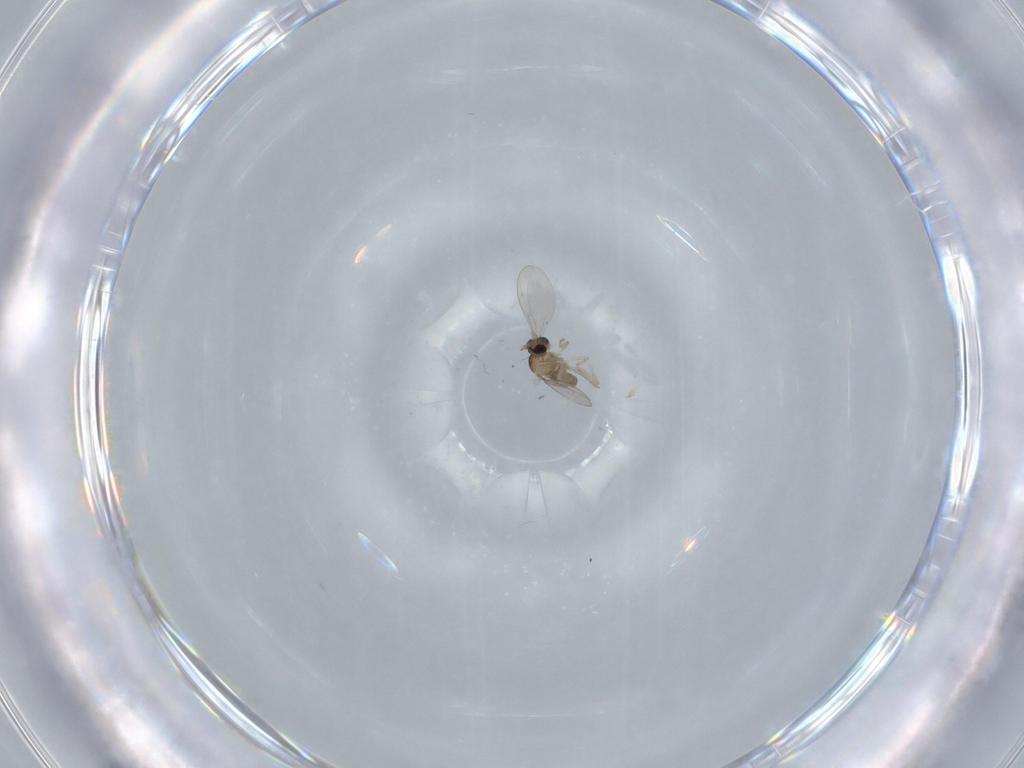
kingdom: Animalia
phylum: Arthropoda
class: Insecta
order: Diptera
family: Cecidomyiidae
